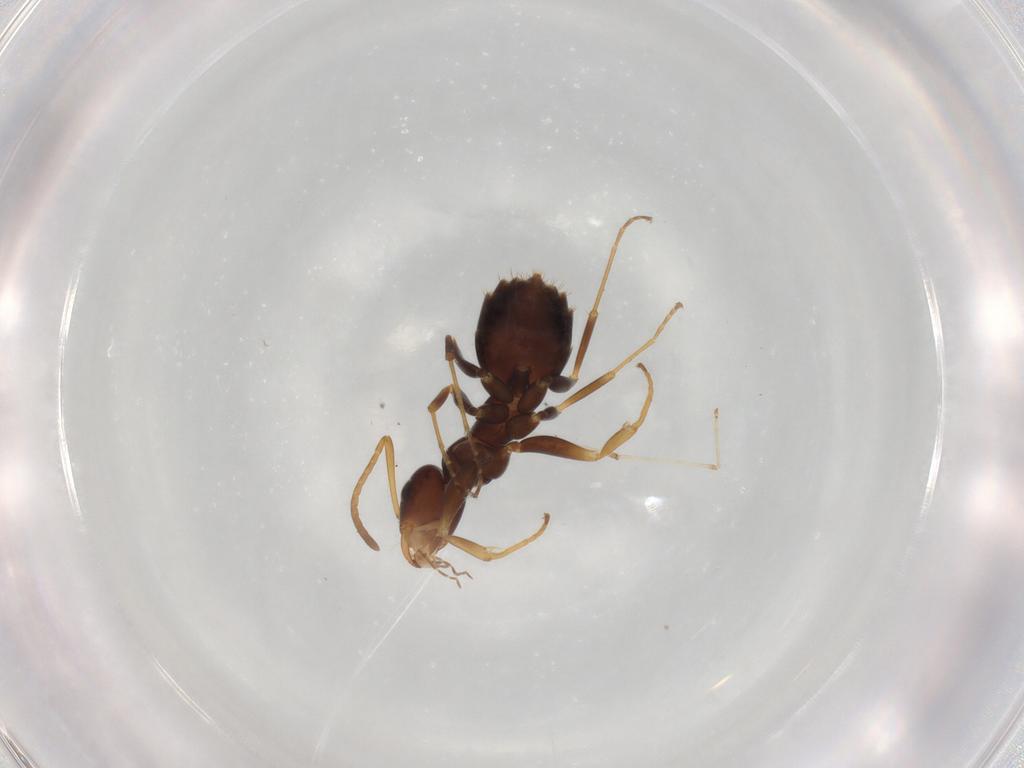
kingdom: Animalia
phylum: Arthropoda
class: Insecta
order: Hymenoptera
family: Formicidae
